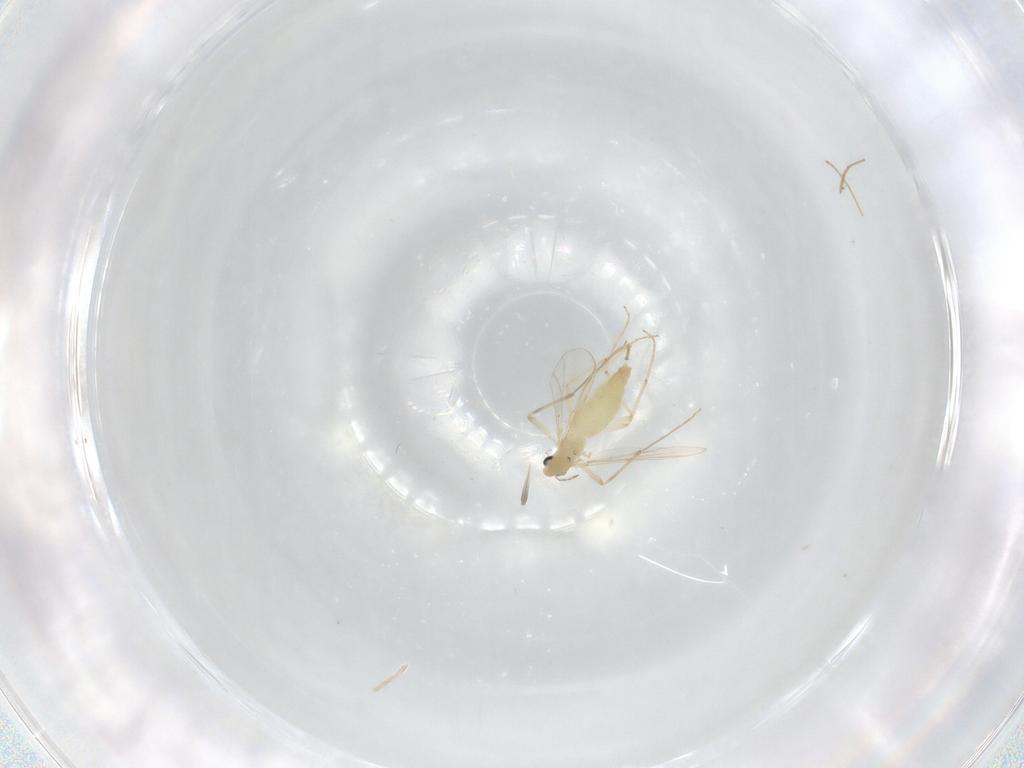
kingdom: Animalia
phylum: Arthropoda
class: Insecta
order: Diptera
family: Chironomidae
